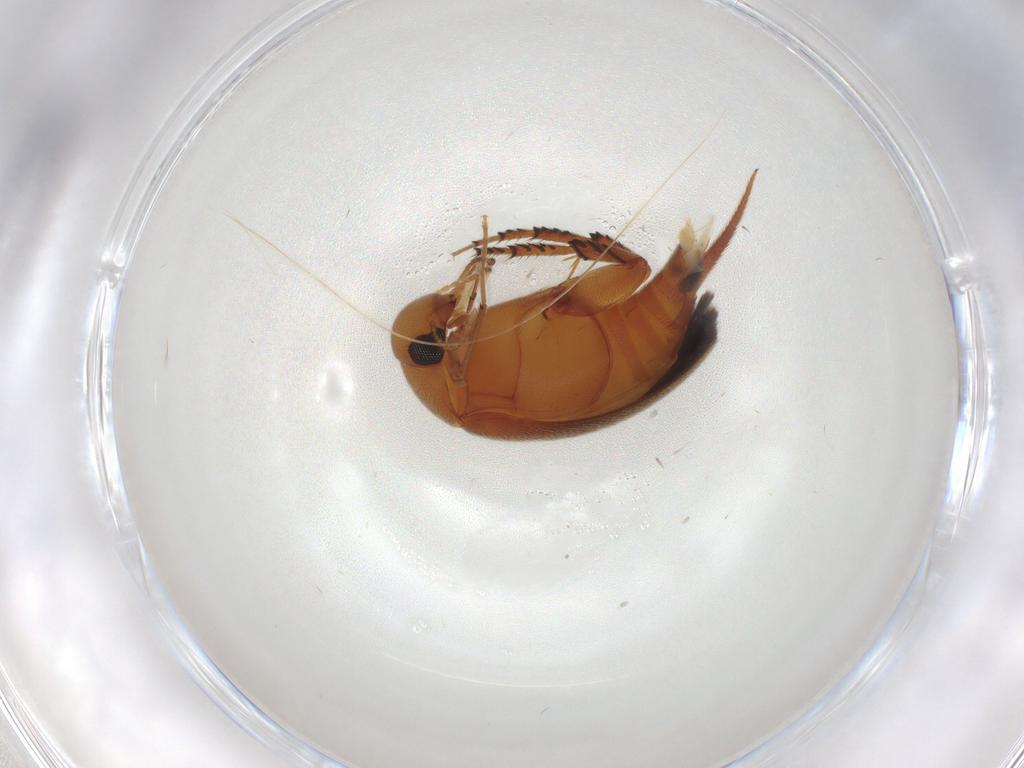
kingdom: Animalia
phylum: Arthropoda
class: Insecta
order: Coleoptera
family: Mordellidae
